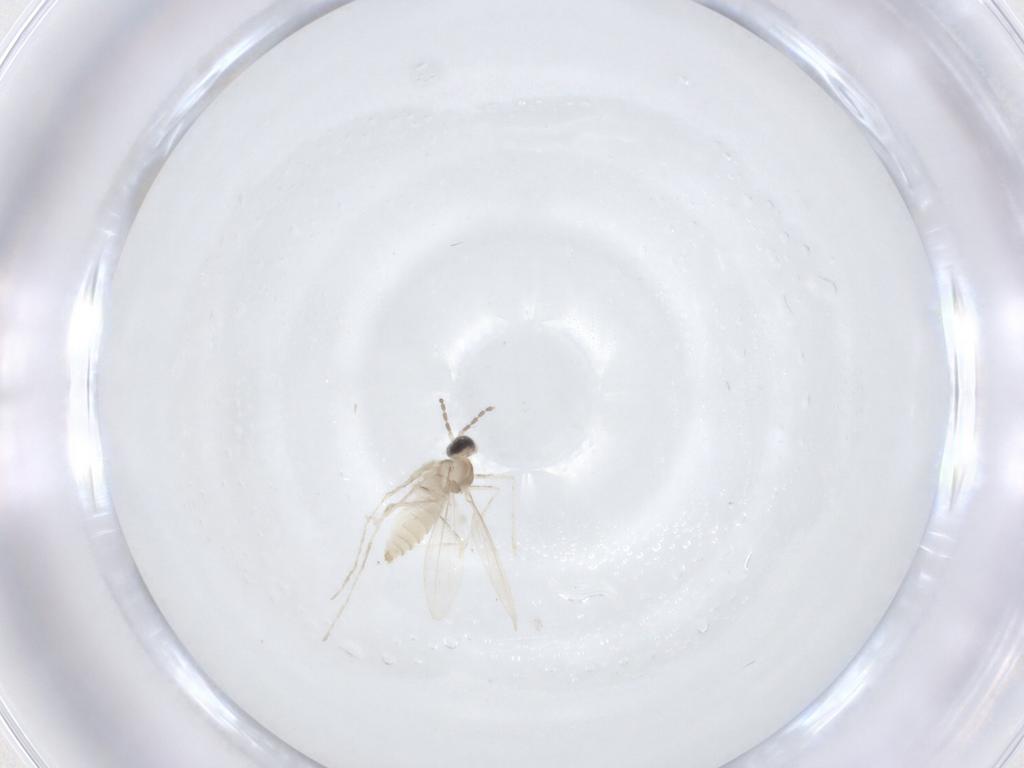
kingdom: Animalia
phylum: Arthropoda
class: Insecta
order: Diptera
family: Cecidomyiidae
